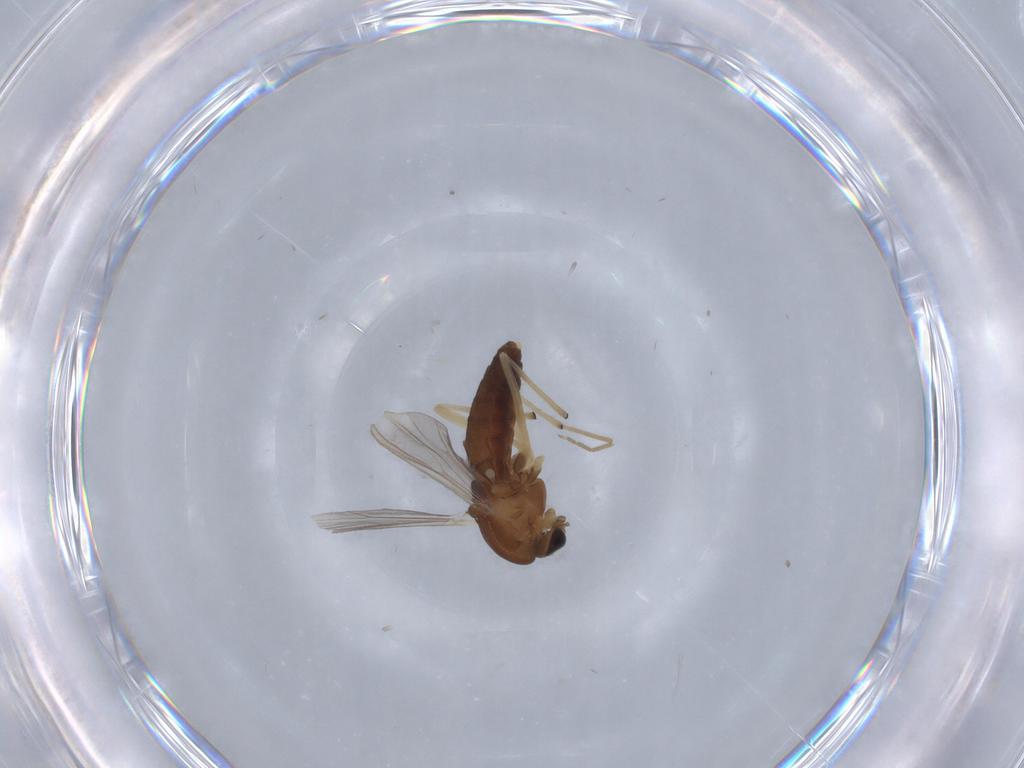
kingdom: Animalia
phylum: Arthropoda
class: Insecta
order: Diptera
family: Chironomidae
